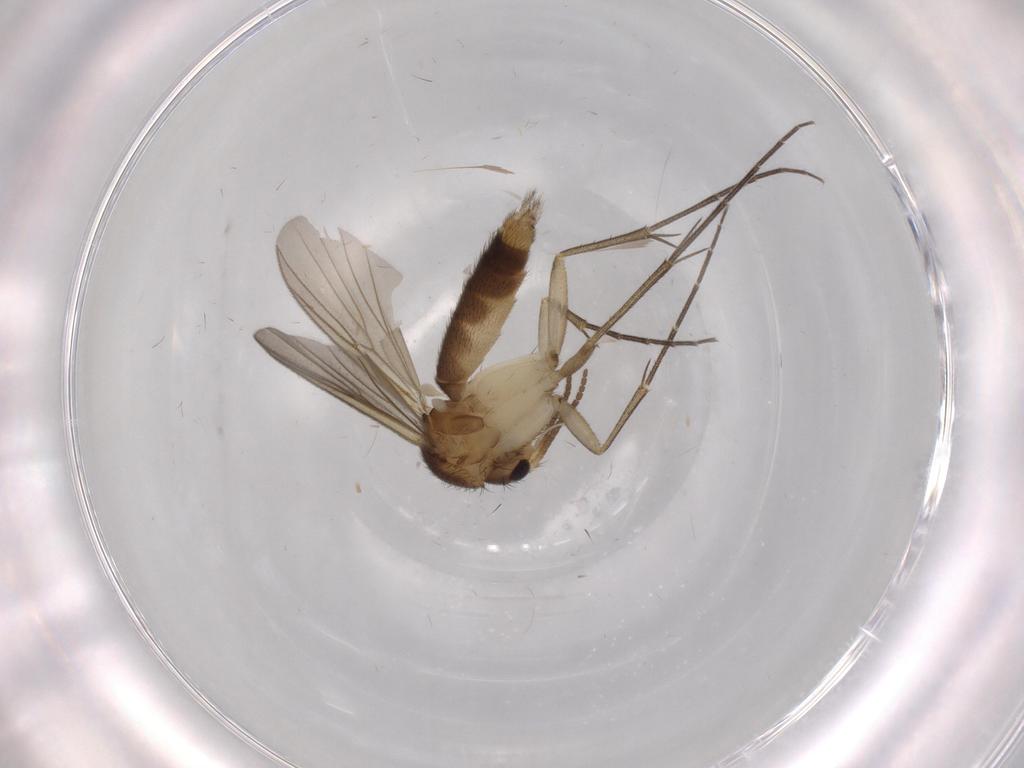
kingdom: Animalia
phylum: Arthropoda
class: Insecta
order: Diptera
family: Mycetophilidae
